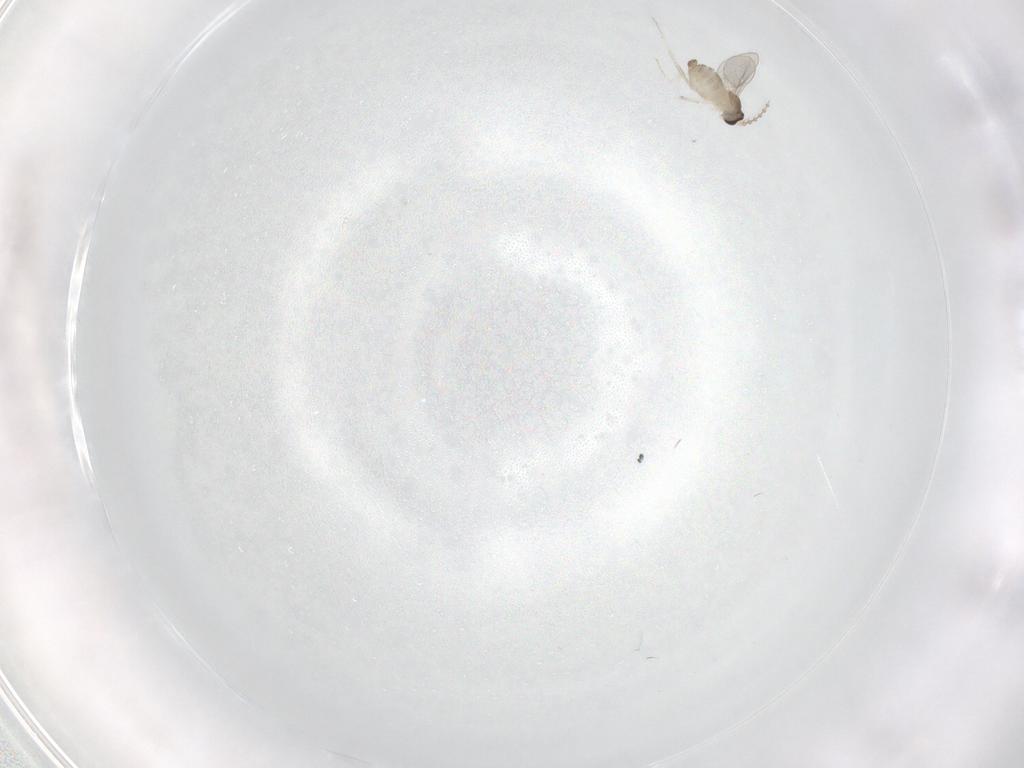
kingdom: Animalia
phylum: Arthropoda
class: Insecta
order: Diptera
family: Cecidomyiidae
